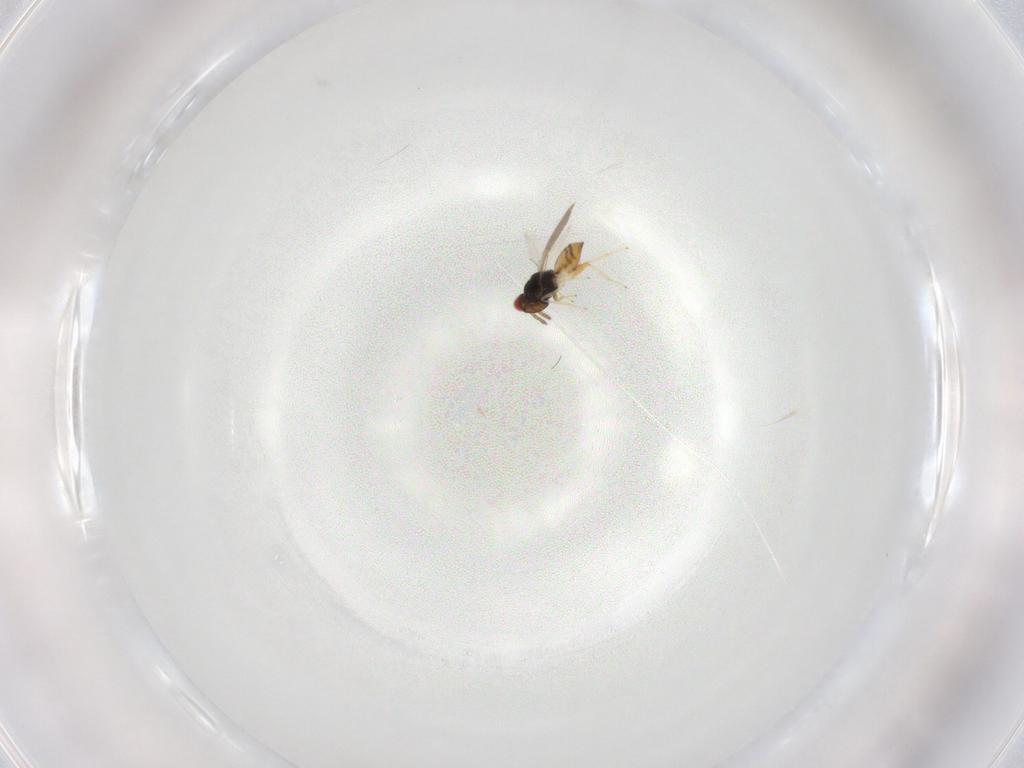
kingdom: Animalia
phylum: Arthropoda
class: Insecta
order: Hymenoptera
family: Eulophidae
